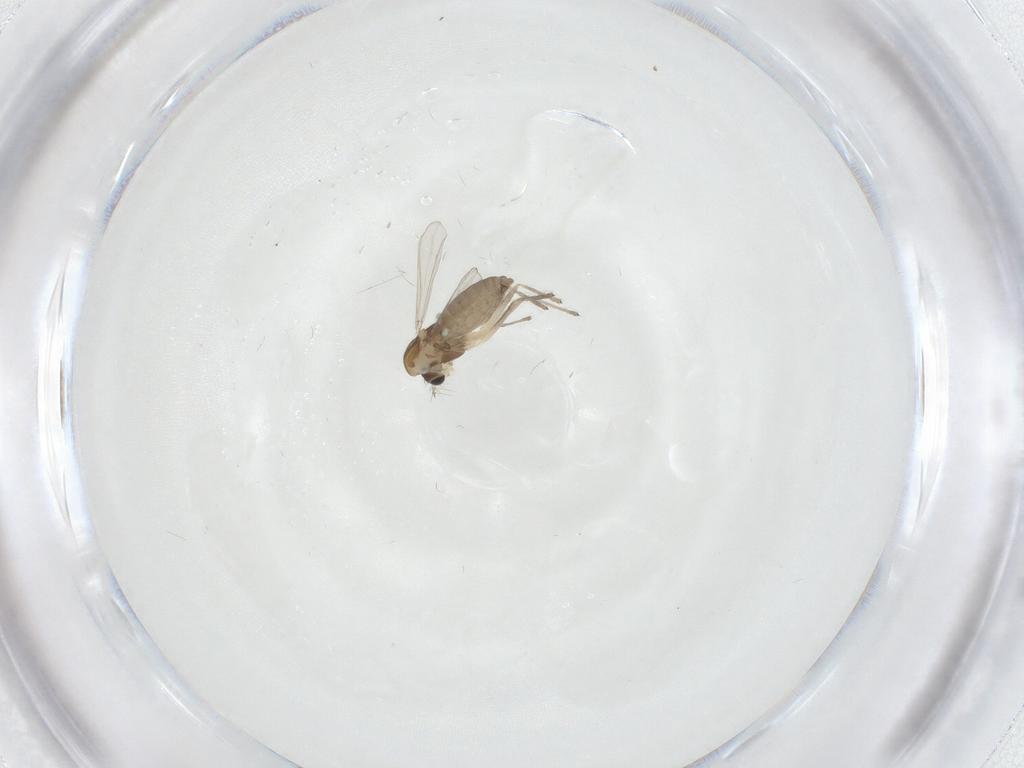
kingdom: Animalia
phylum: Arthropoda
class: Insecta
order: Diptera
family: Chironomidae
